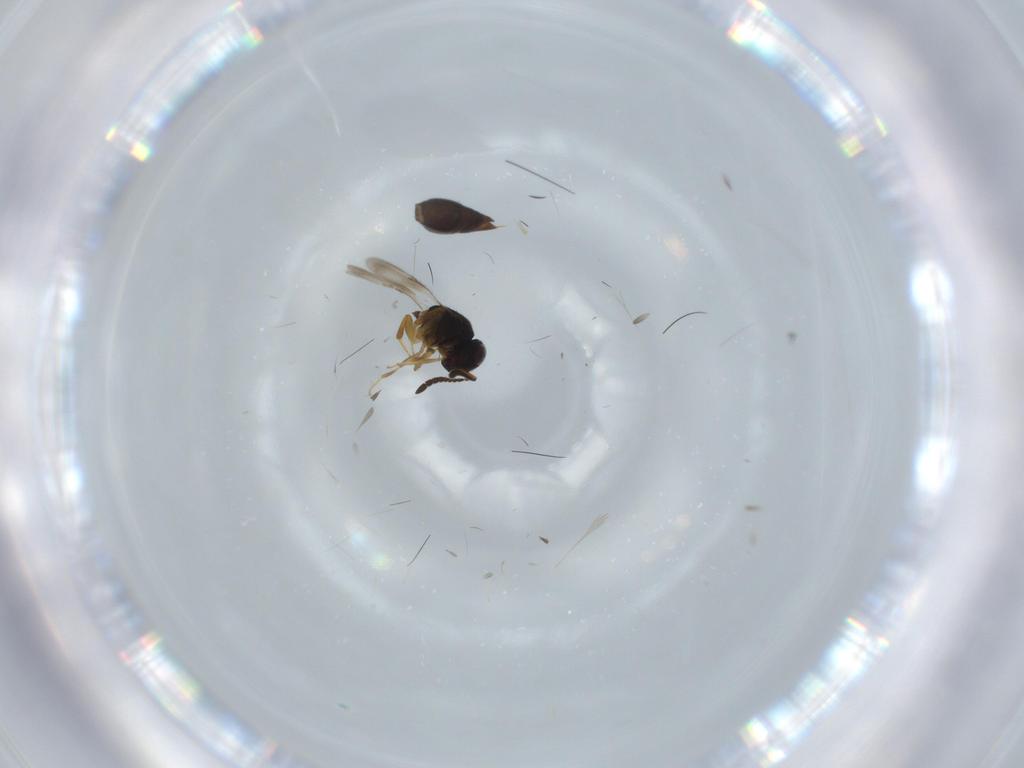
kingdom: Animalia
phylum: Arthropoda
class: Insecta
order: Hymenoptera
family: Ceraphronidae
